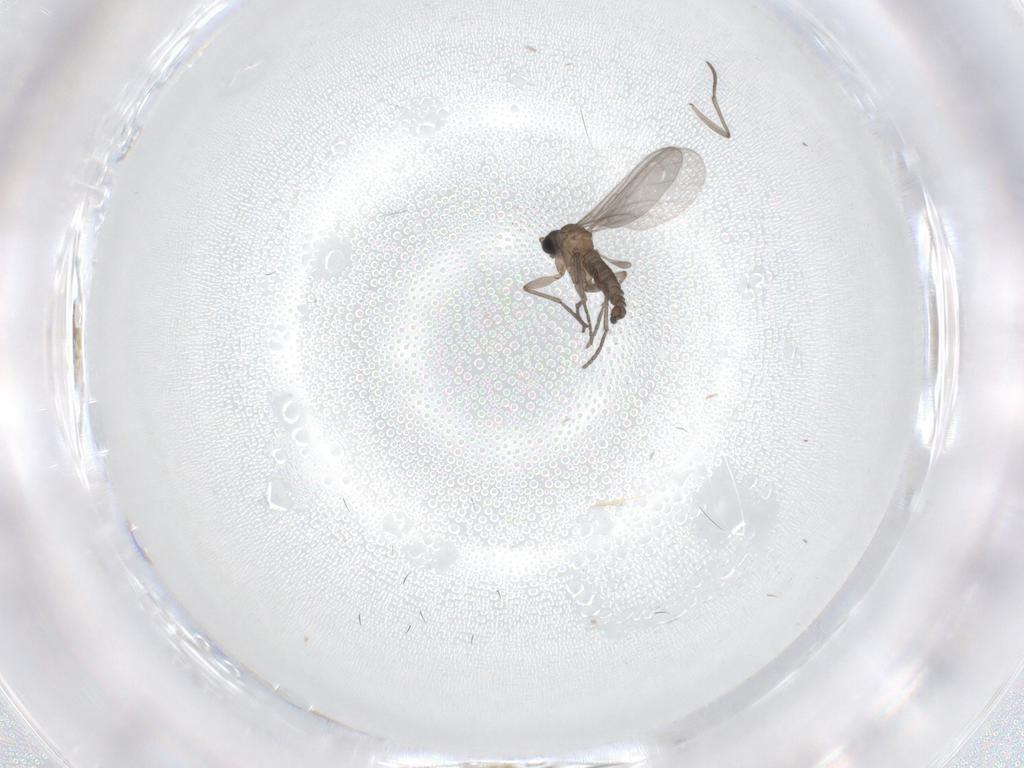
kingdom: Animalia
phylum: Arthropoda
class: Insecta
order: Diptera
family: Sciaridae
